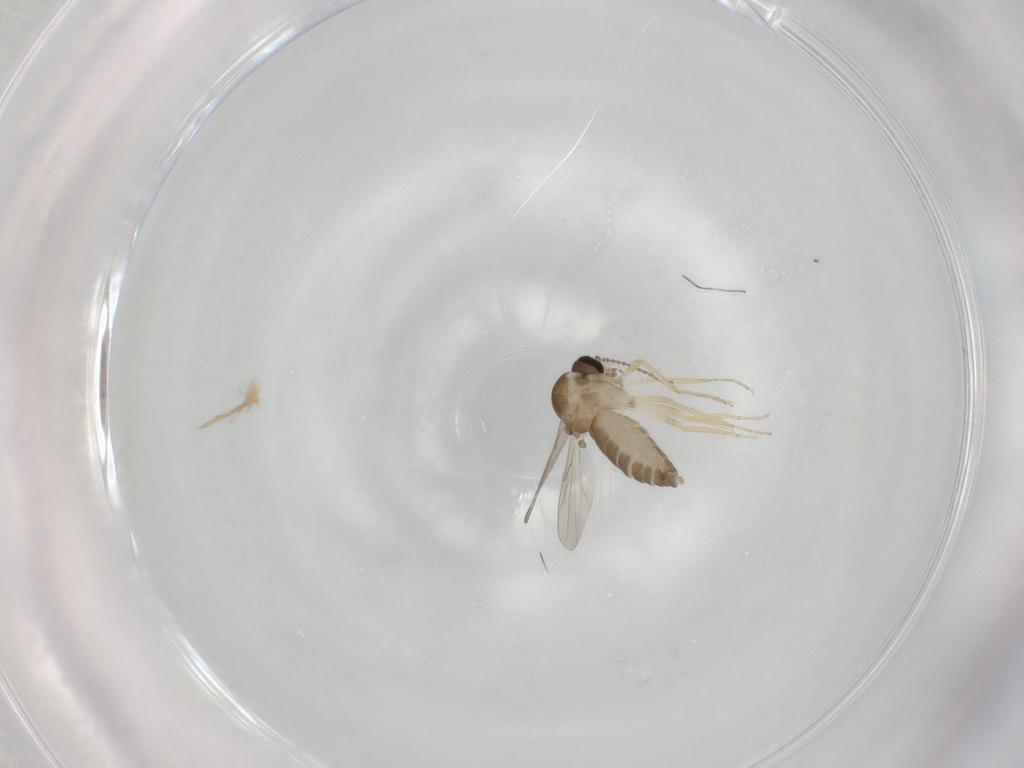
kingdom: Animalia
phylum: Arthropoda
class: Insecta
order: Diptera
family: Ceratopogonidae
